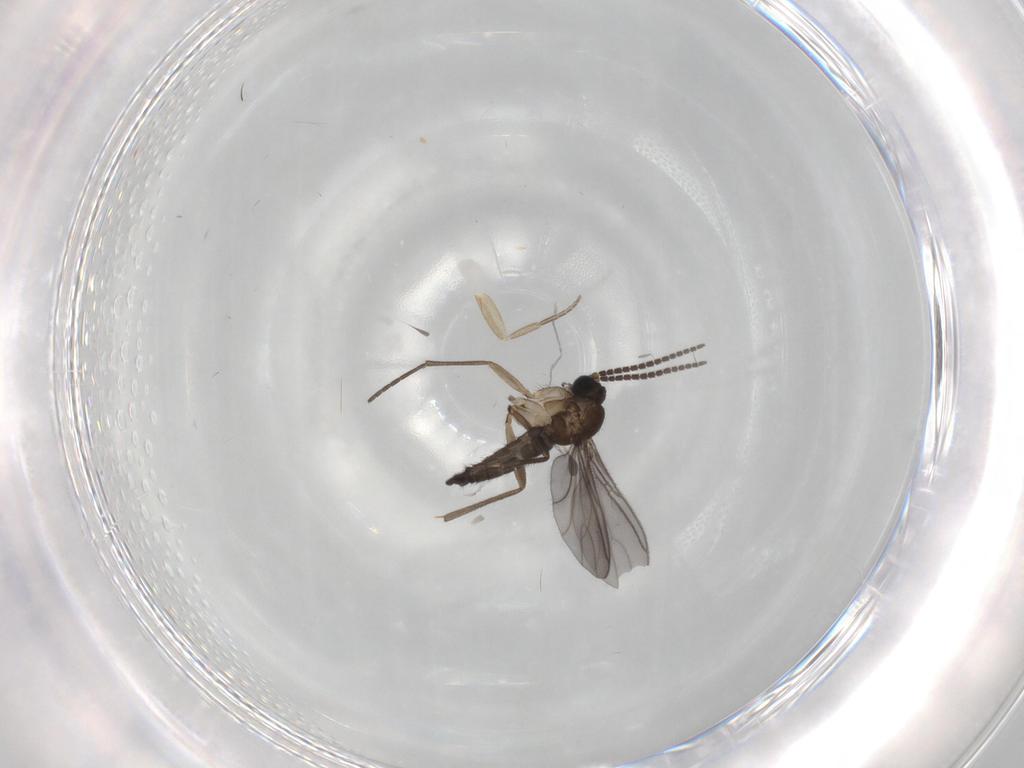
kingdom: Animalia
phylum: Arthropoda
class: Insecta
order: Diptera
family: Sciaridae
